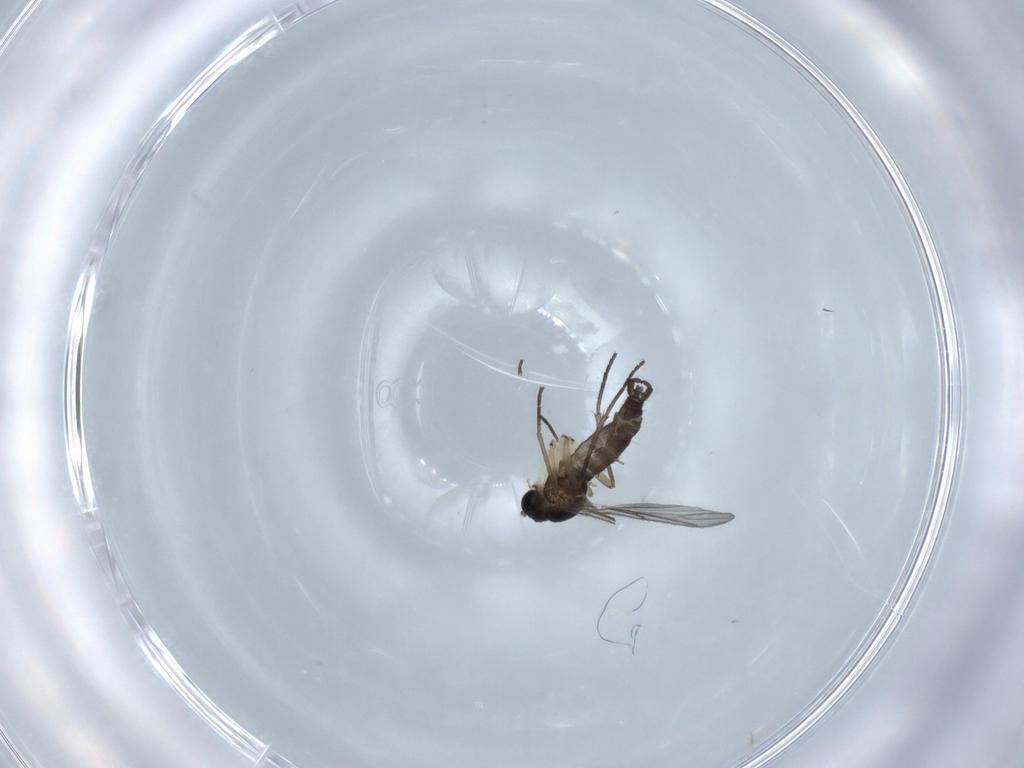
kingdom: Animalia
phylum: Arthropoda
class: Insecta
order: Diptera
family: Sciaridae
